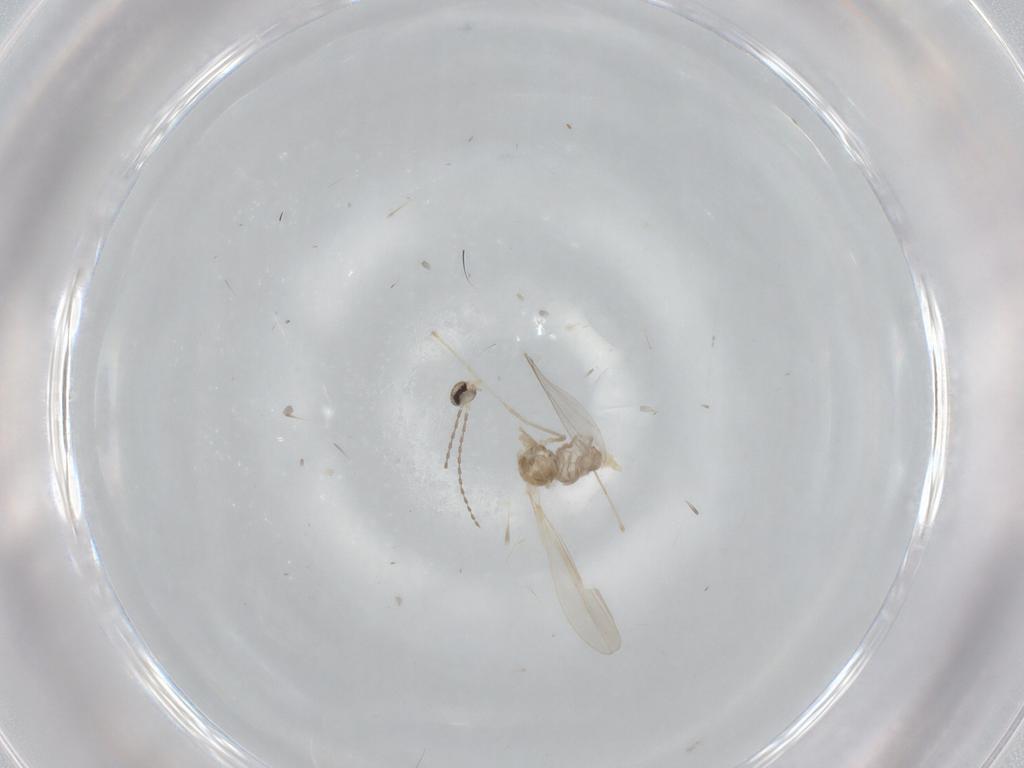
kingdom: Animalia
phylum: Arthropoda
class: Insecta
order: Diptera
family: Cecidomyiidae
